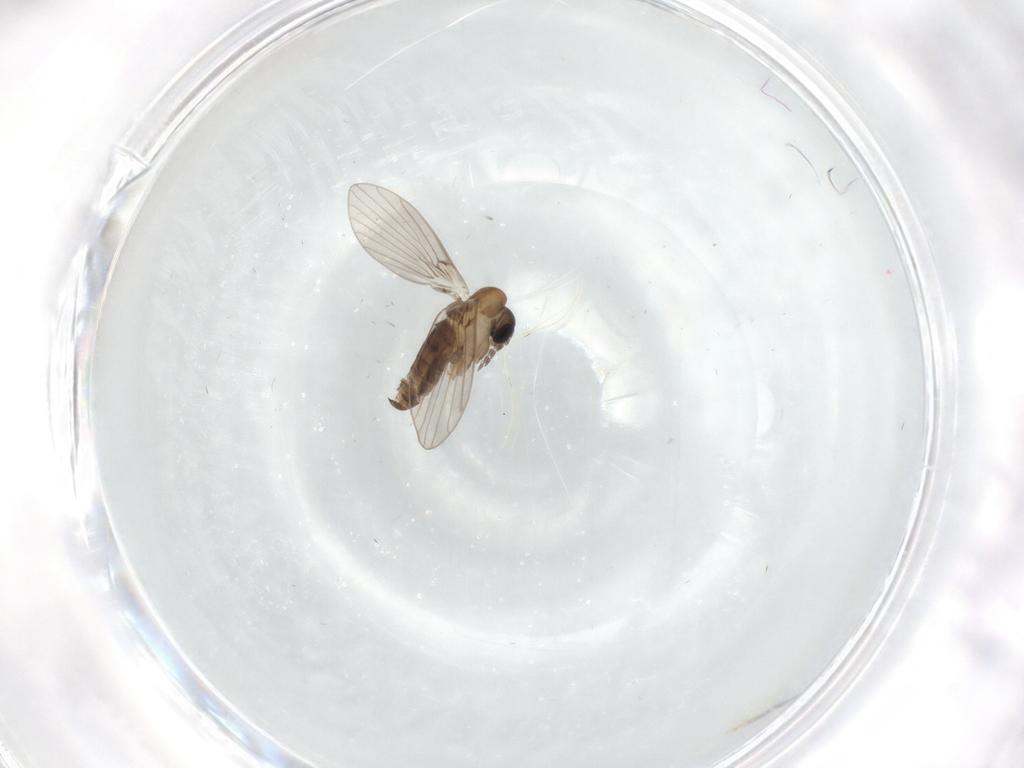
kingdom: Animalia
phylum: Arthropoda
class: Insecta
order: Diptera
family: Psychodidae
